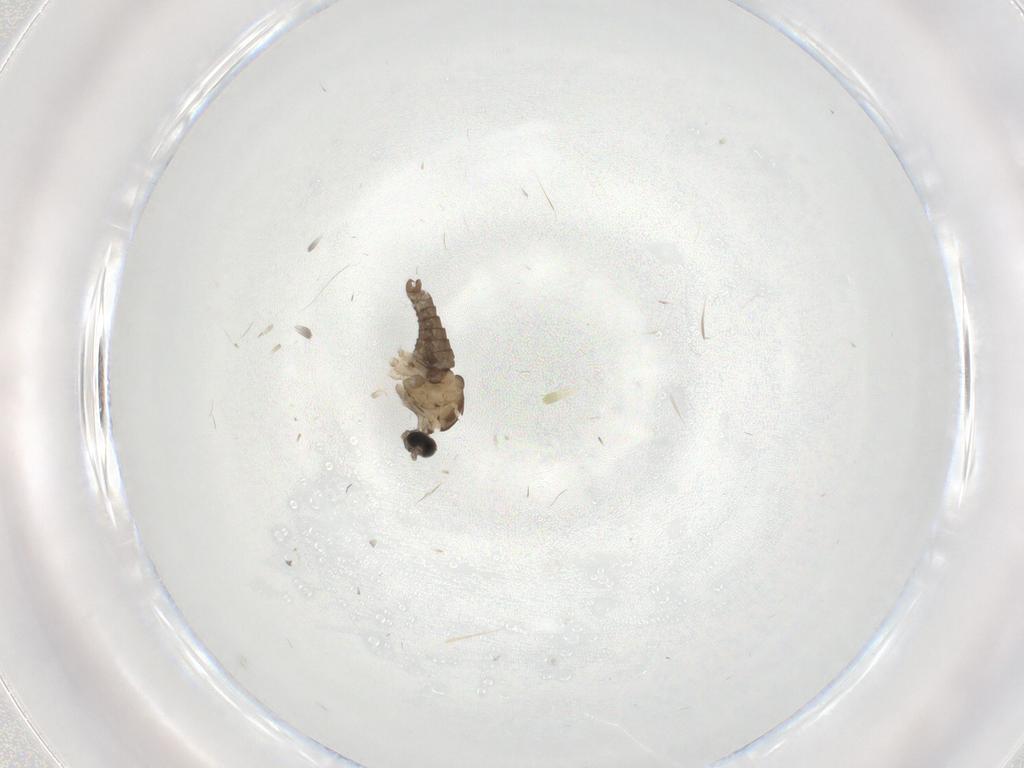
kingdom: Animalia
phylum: Arthropoda
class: Insecta
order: Diptera
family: Cecidomyiidae
